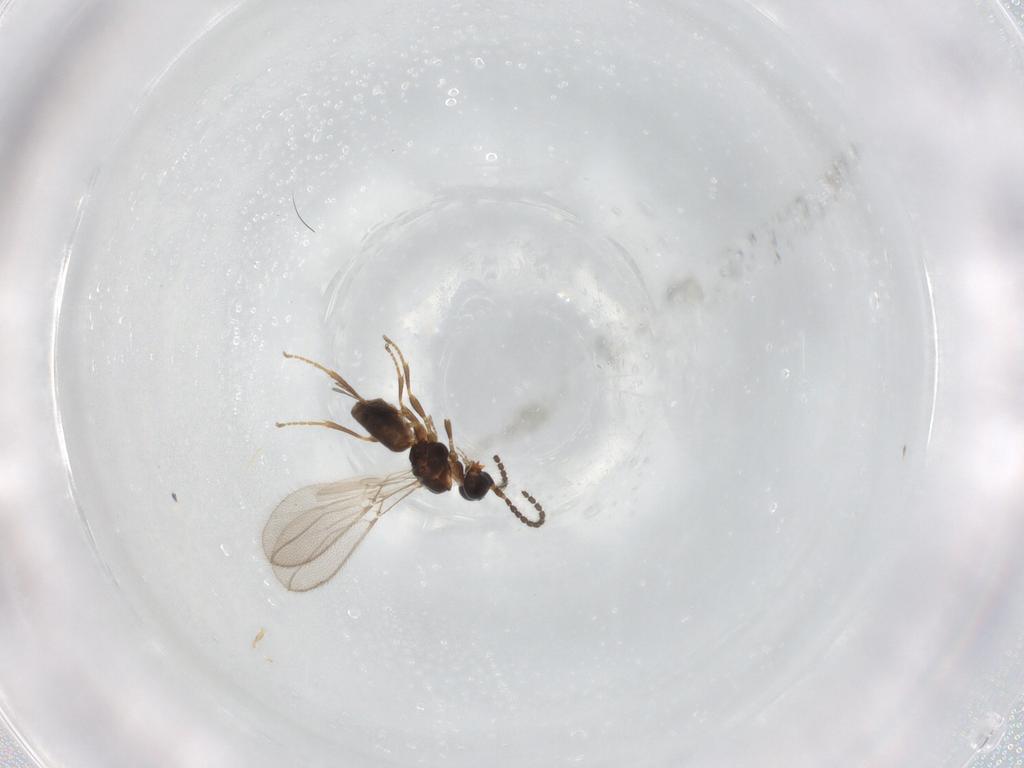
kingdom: Animalia
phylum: Arthropoda
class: Insecta
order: Hymenoptera
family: Braconidae
